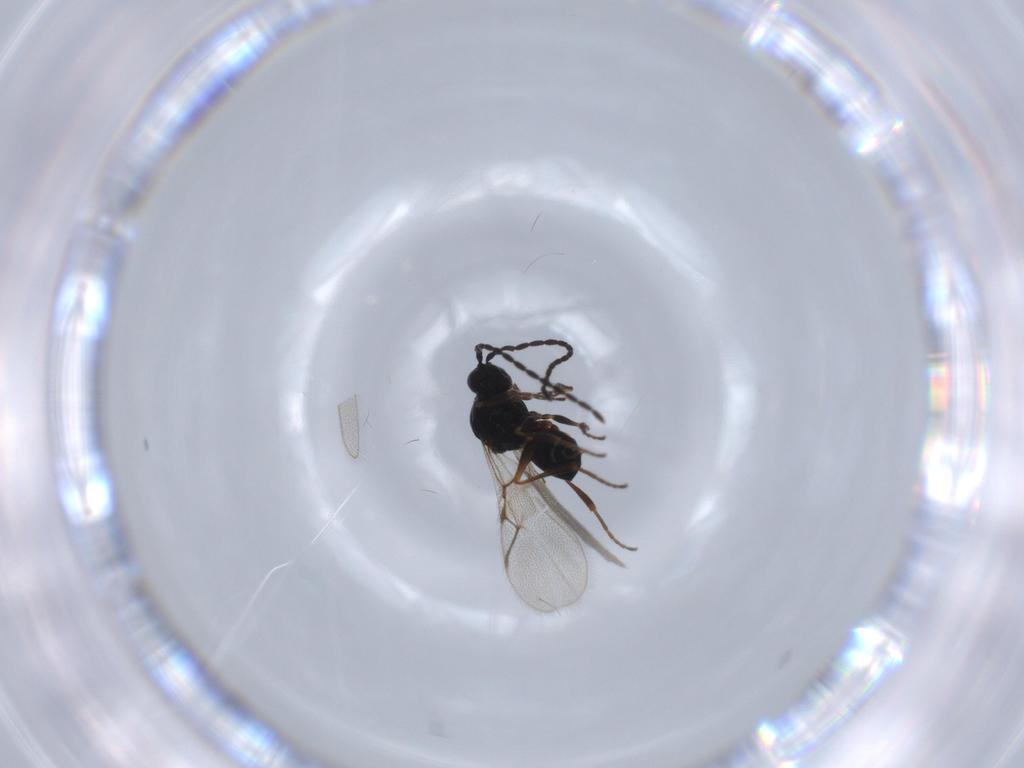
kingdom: Animalia
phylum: Arthropoda
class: Insecta
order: Hymenoptera
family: Figitidae
